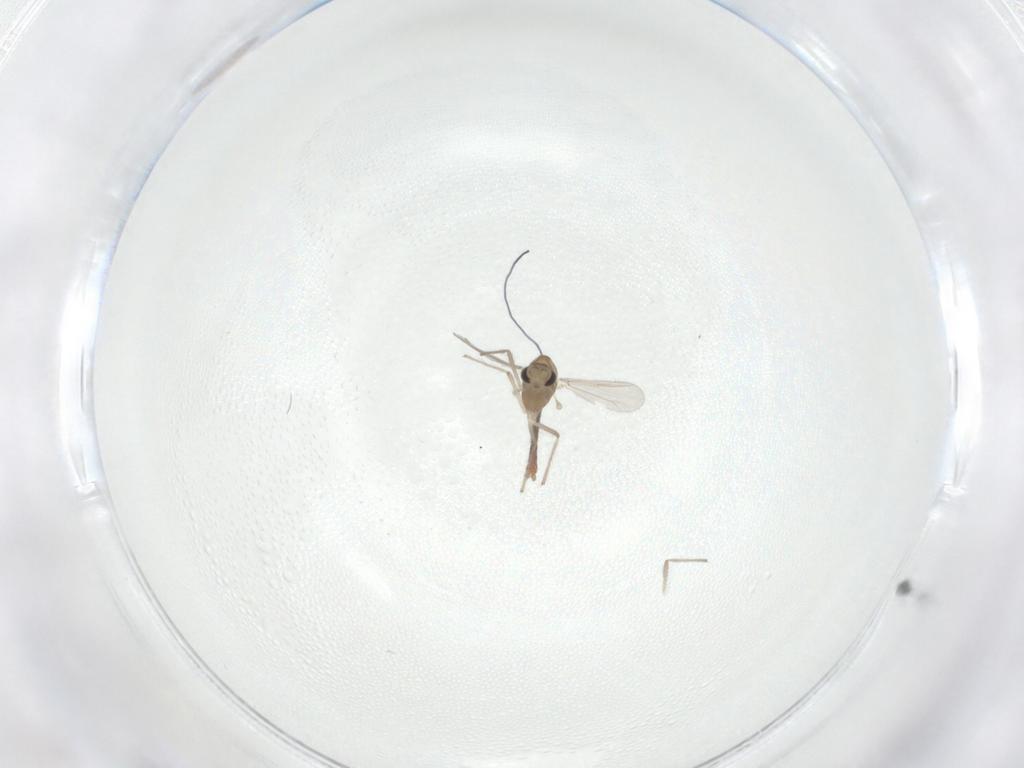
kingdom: Animalia
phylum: Arthropoda
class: Insecta
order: Diptera
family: Chironomidae
